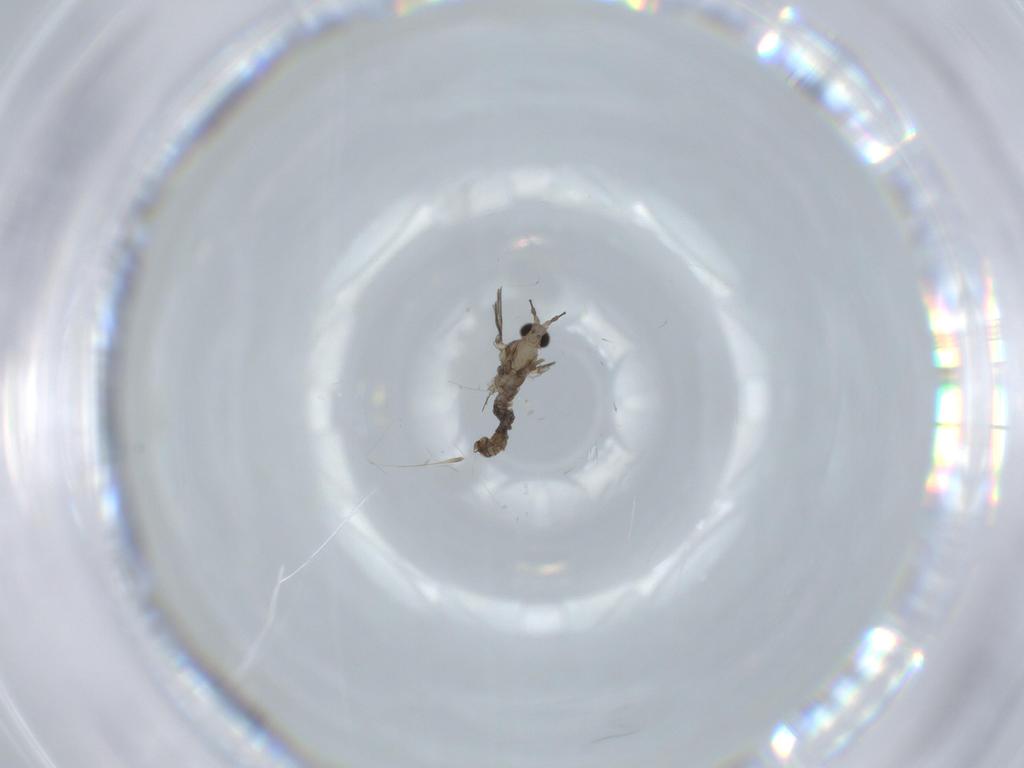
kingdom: Animalia
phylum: Arthropoda
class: Insecta
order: Diptera
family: Cecidomyiidae
